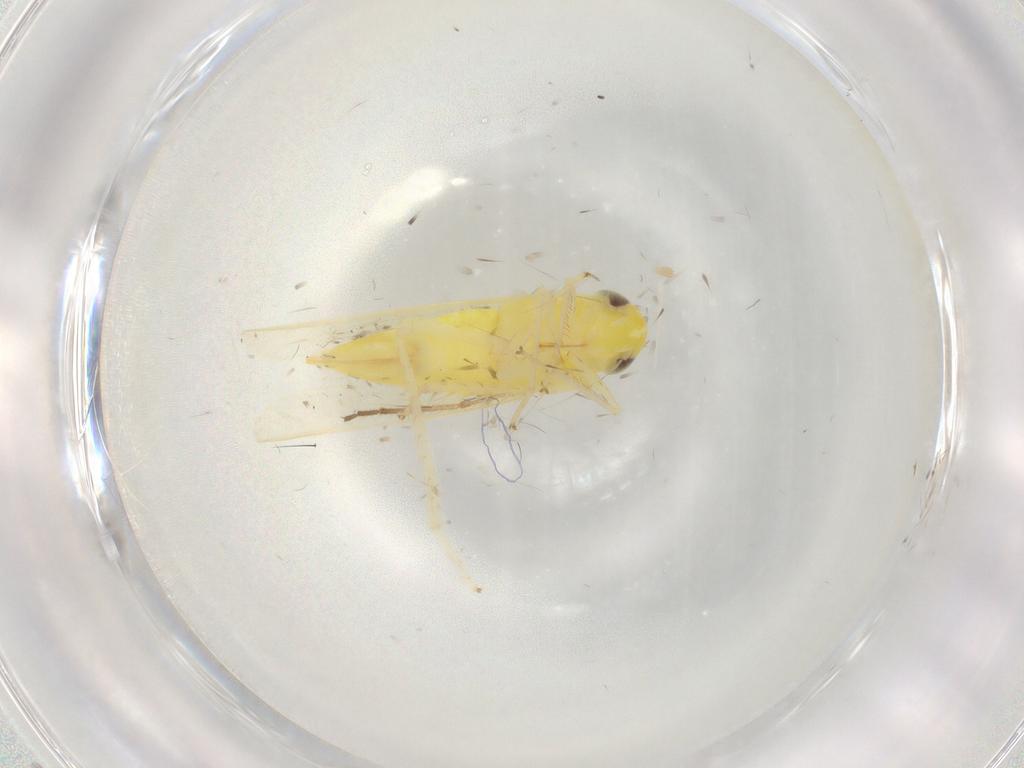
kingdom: Animalia
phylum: Arthropoda
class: Insecta
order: Hemiptera
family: Cicadellidae
